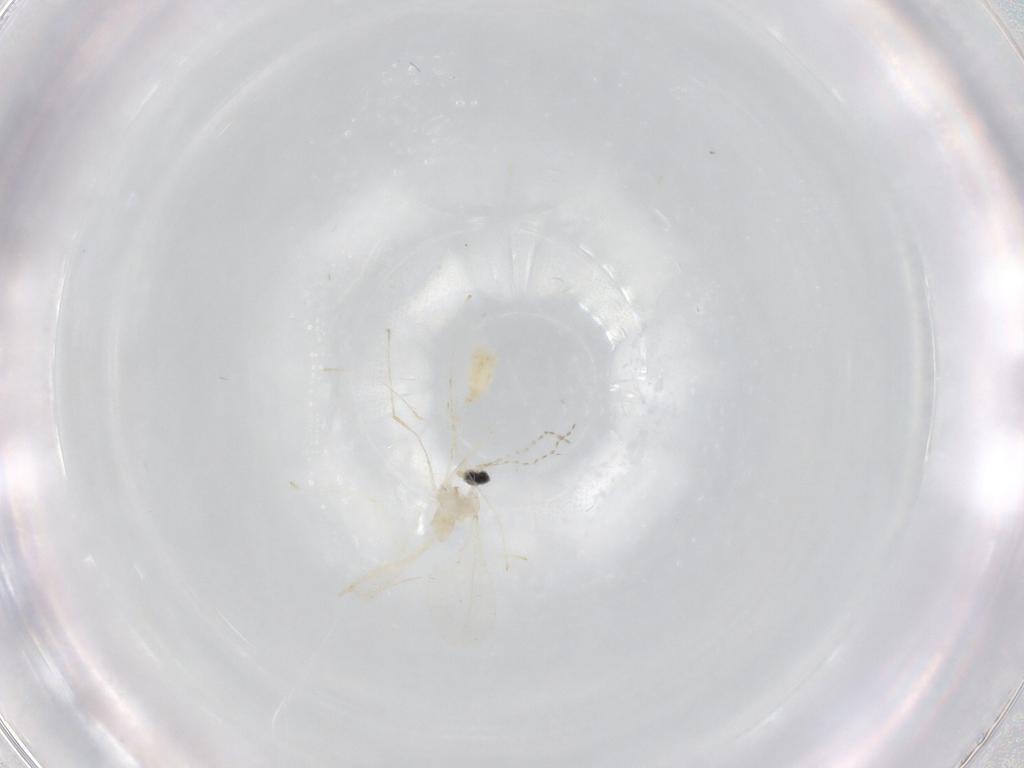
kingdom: Animalia
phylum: Arthropoda
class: Insecta
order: Diptera
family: Cecidomyiidae
